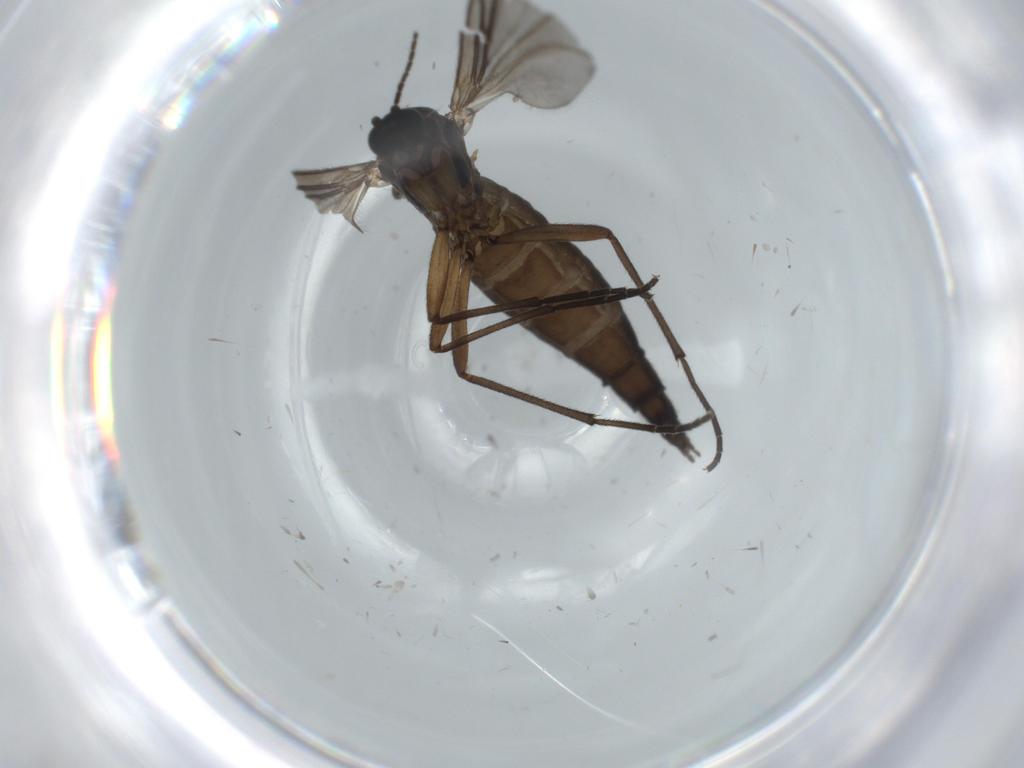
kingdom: Animalia
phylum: Arthropoda
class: Insecta
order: Diptera
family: Sciaridae
